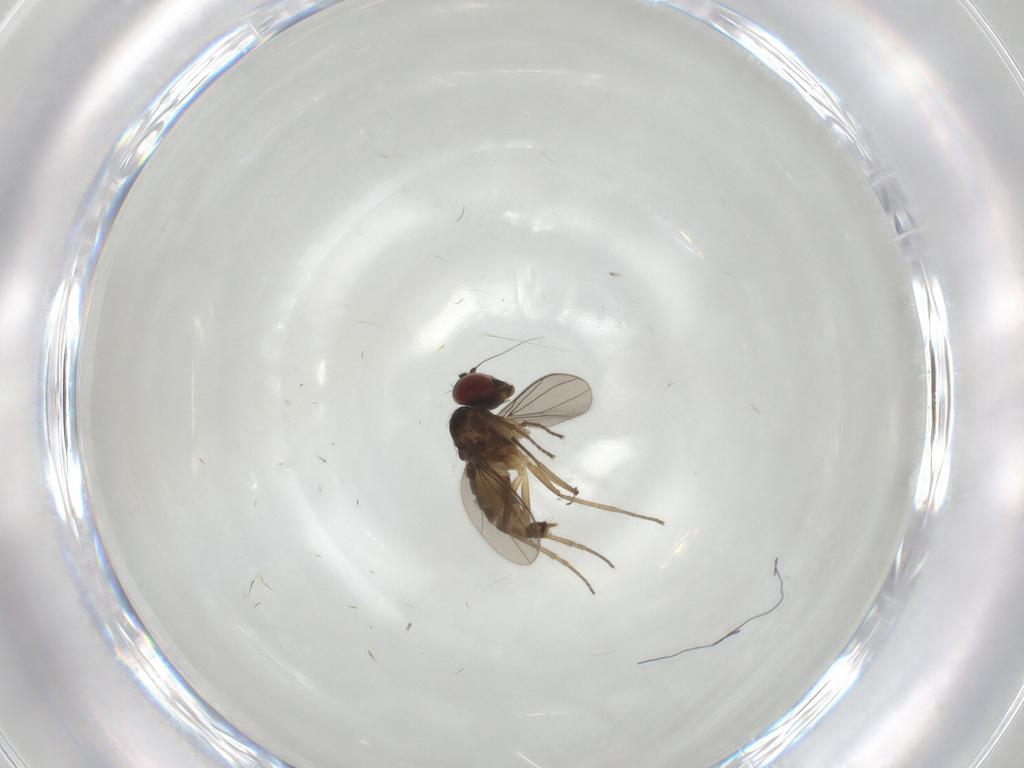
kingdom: Animalia
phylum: Arthropoda
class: Insecta
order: Diptera
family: Dolichopodidae
